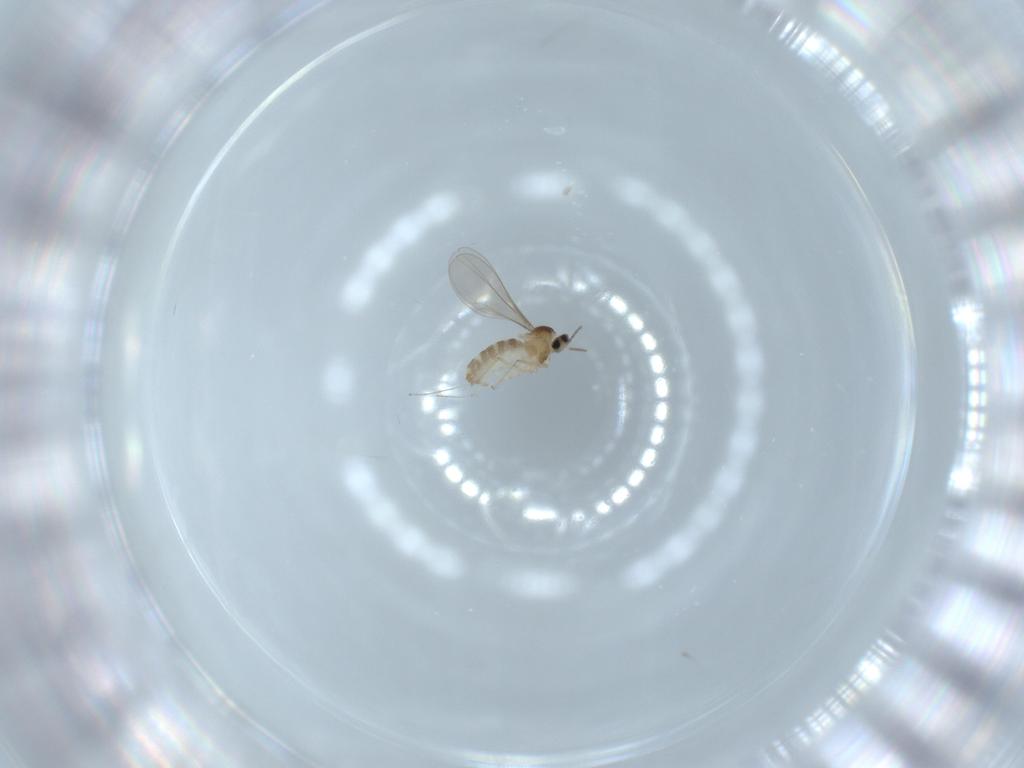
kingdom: Animalia
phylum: Arthropoda
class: Insecta
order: Diptera
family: Cecidomyiidae
